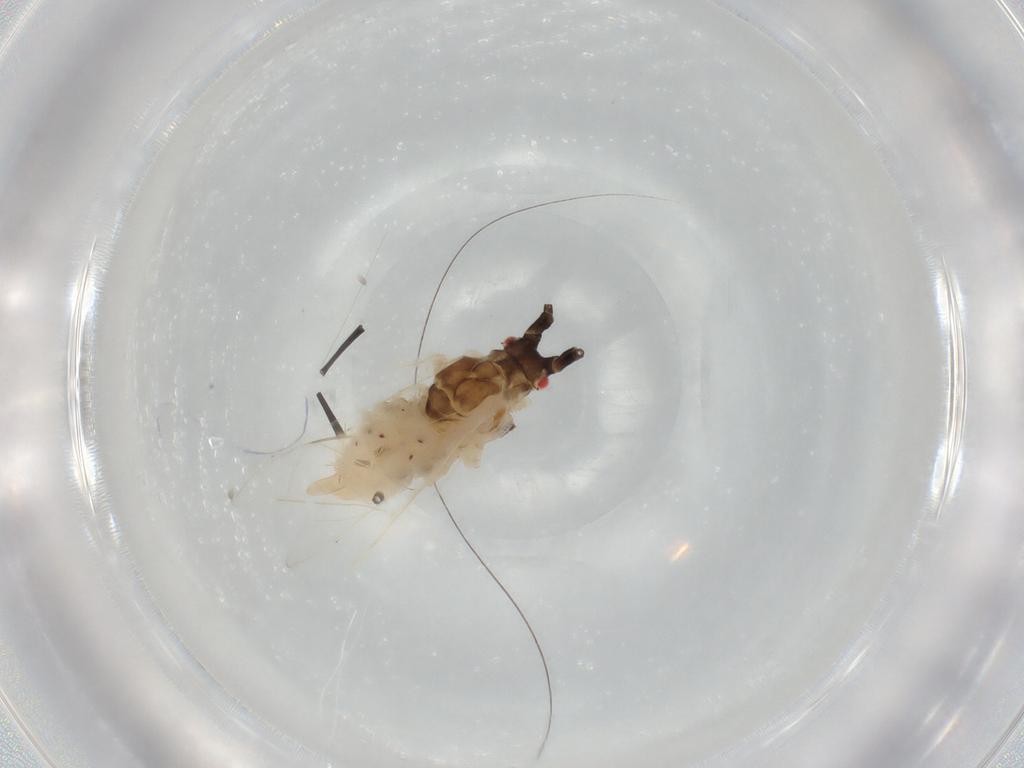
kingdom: Animalia
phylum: Arthropoda
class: Insecta
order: Hemiptera
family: Aphididae
